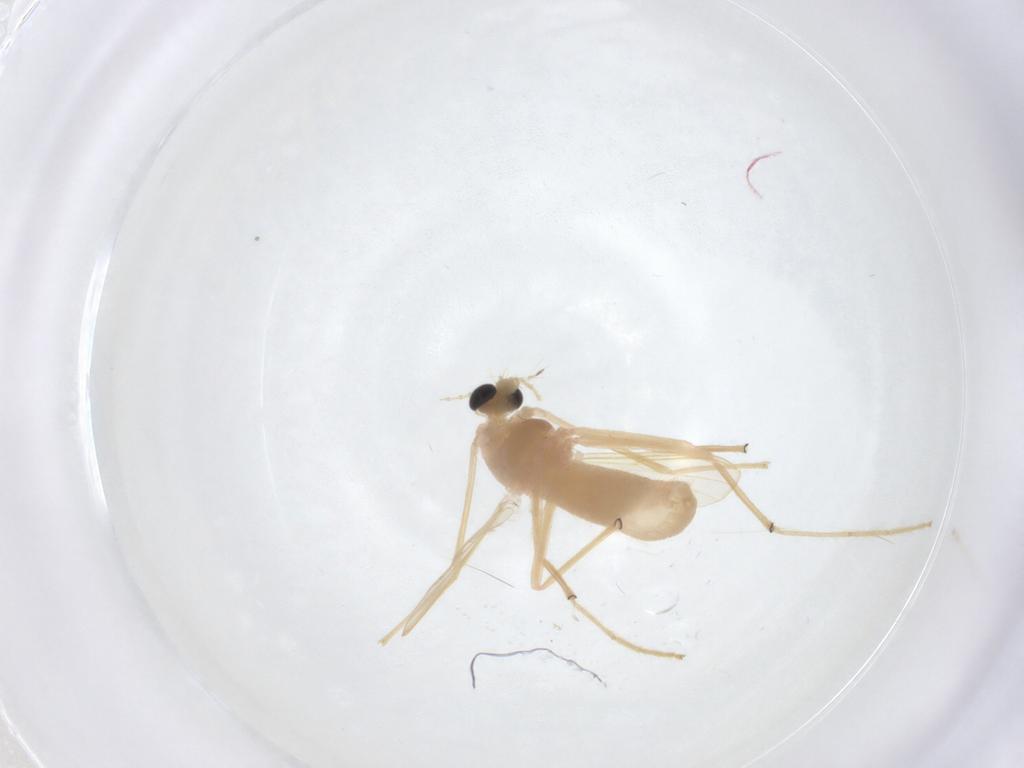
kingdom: Animalia
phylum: Arthropoda
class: Insecta
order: Diptera
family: Chironomidae
